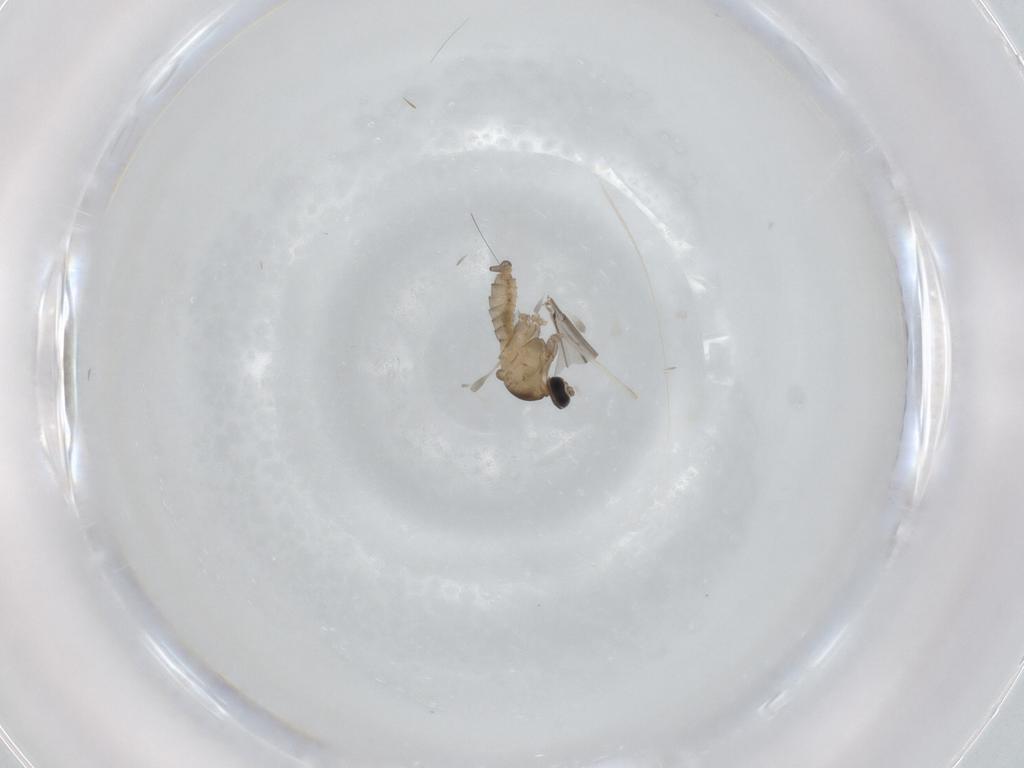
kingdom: Animalia
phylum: Arthropoda
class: Insecta
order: Diptera
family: Cecidomyiidae
